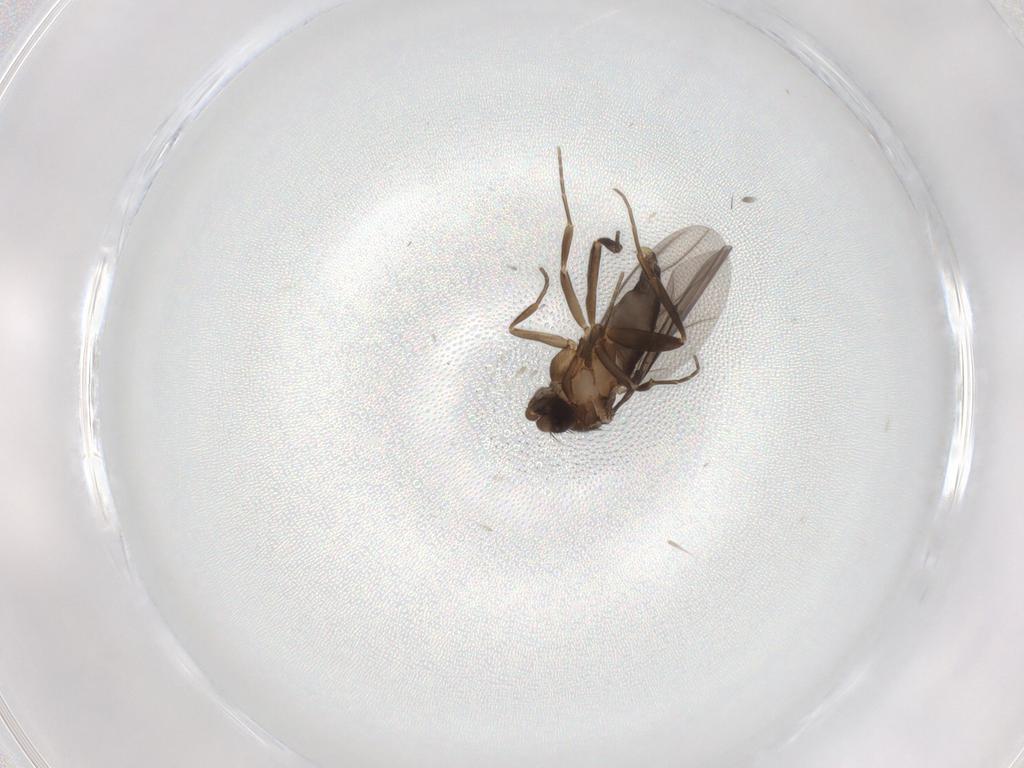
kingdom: Animalia
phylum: Arthropoda
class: Insecta
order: Diptera
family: Sciaridae
